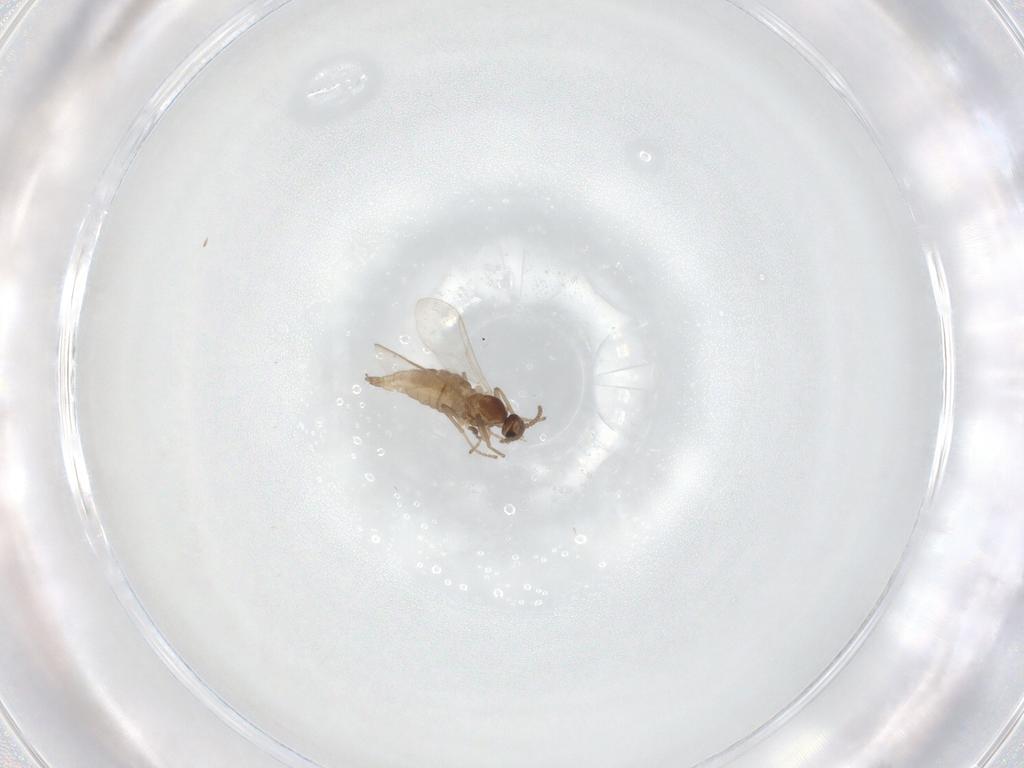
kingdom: Animalia
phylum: Arthropoda
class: Insecta
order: Diptera
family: Cecidomyiidae
